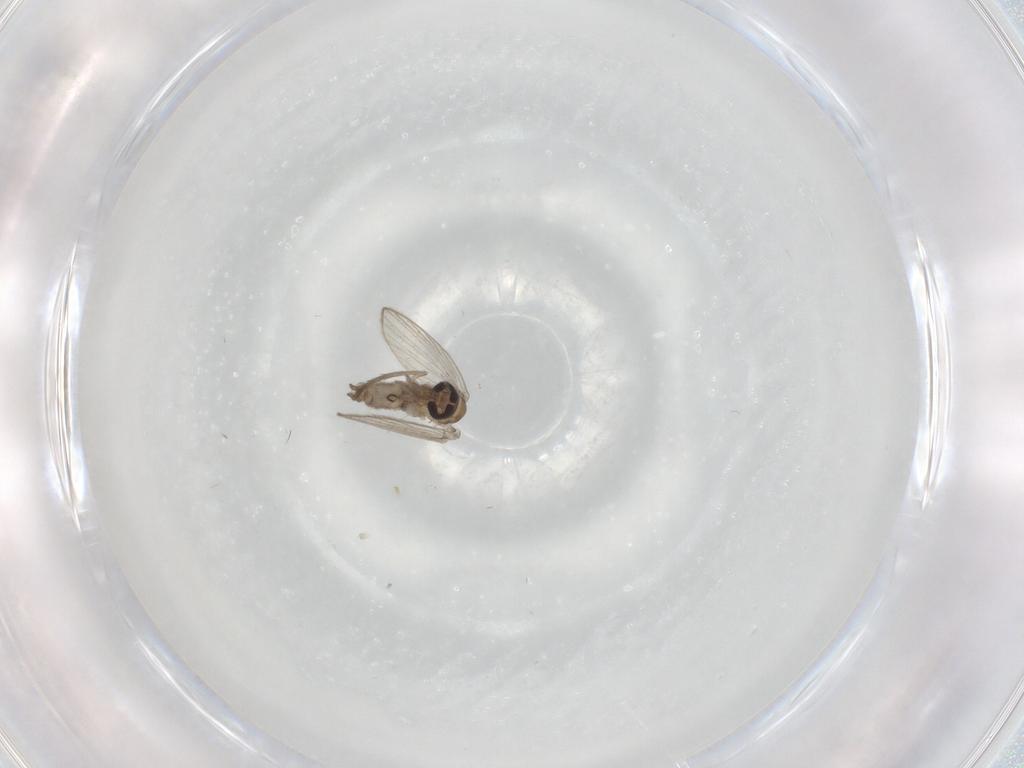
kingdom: Animalia
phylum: Arthropoda
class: Insecta
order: Diptera
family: Psychodidae
